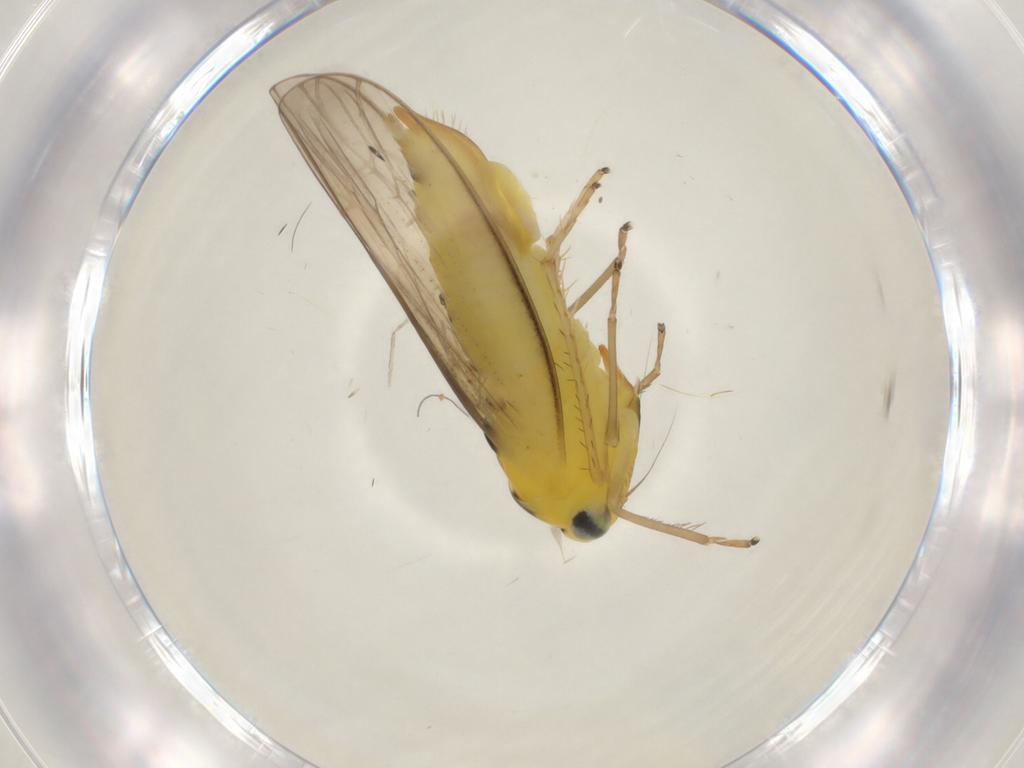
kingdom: Animalia
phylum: Arthropoda
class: Insecta
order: Hemiptera
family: Cicadellidae
